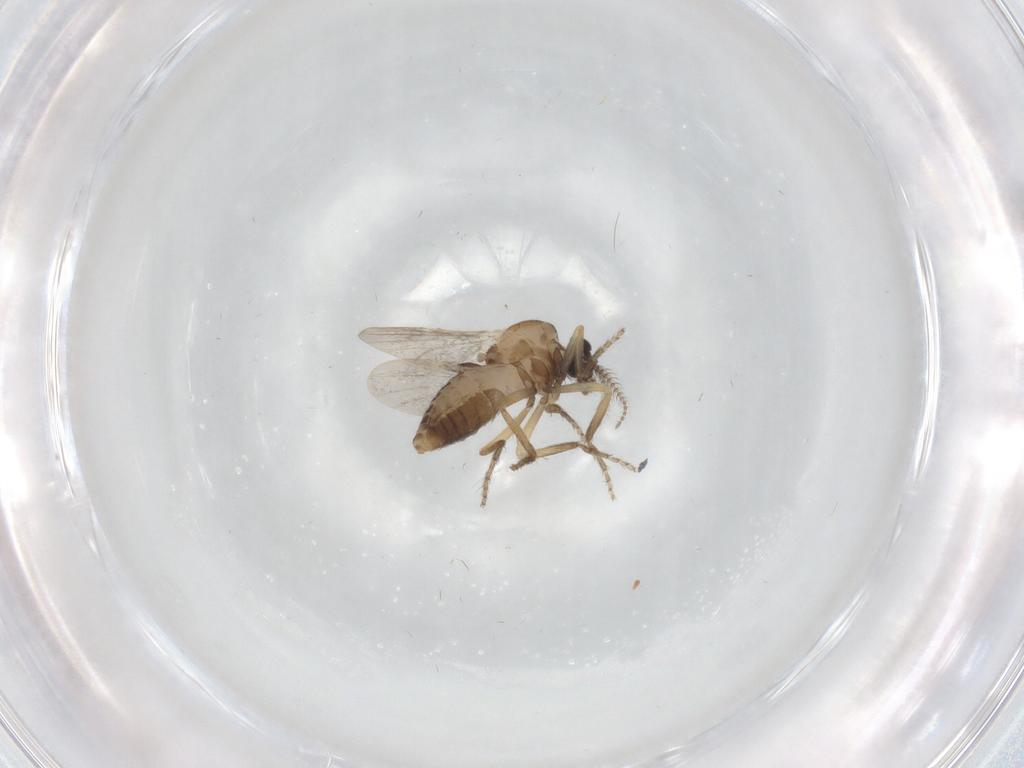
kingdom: Animalia
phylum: Arthropoda
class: Insecta
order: Diptera
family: Ceratopogonidae
